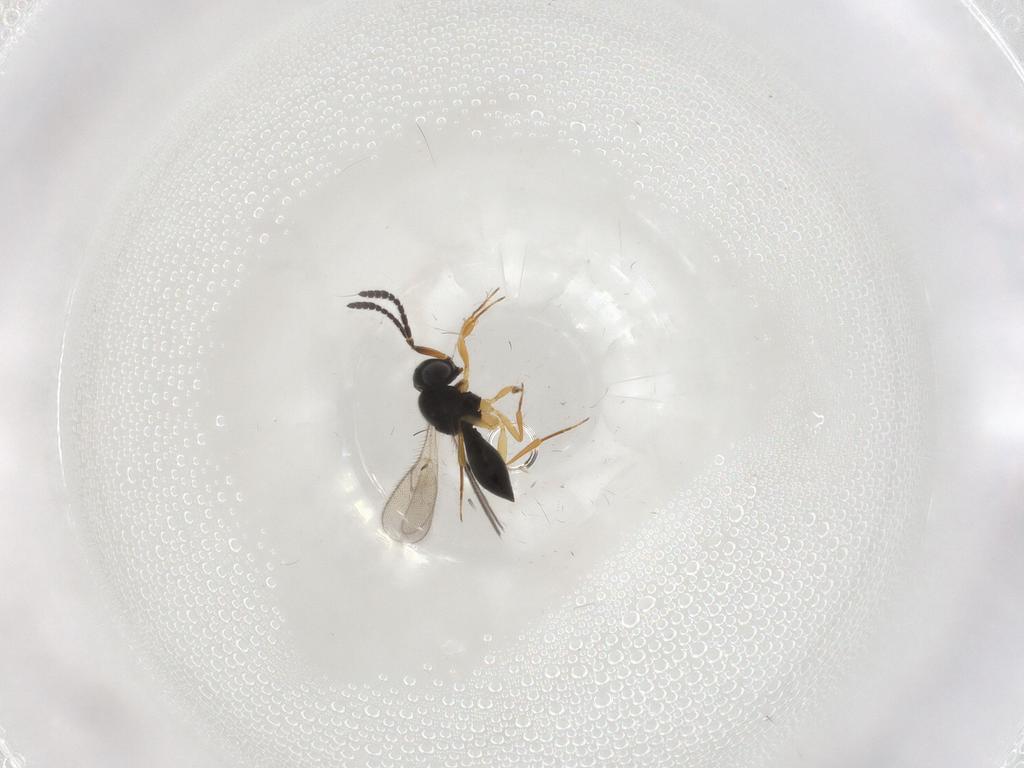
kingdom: Animalia
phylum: Arthropoda
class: Insecta
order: Hymenoptera
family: Scelionidae
